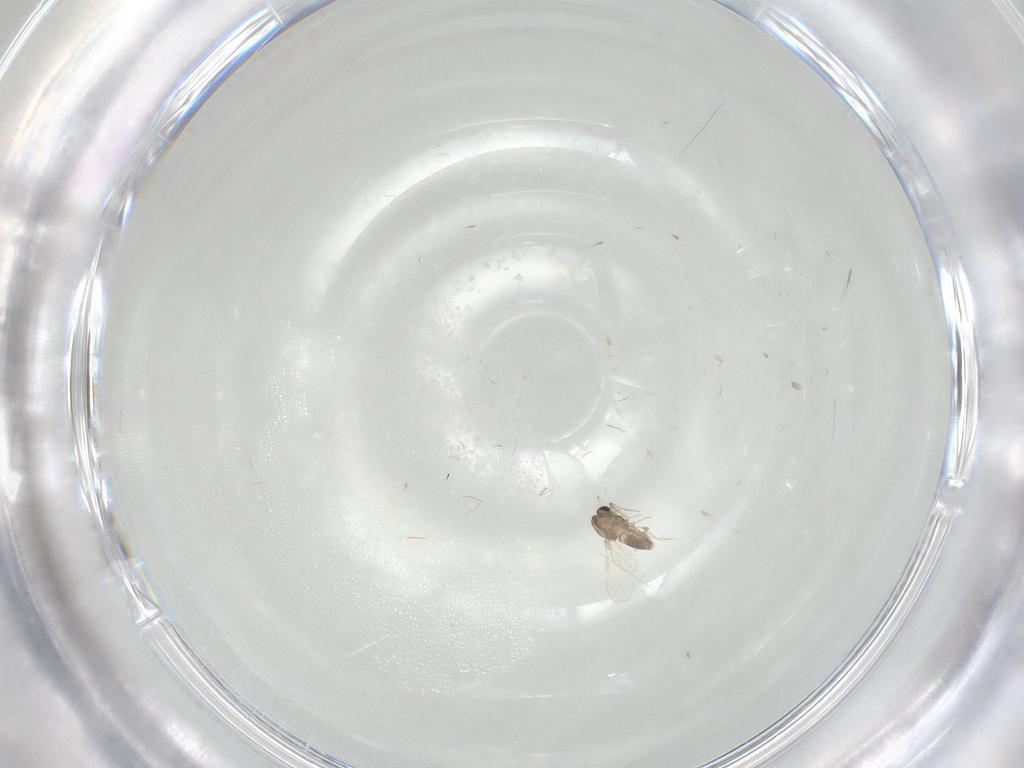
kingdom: Animalia
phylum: Arthropoda
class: Insecta
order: Diptera
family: Chironomidae
